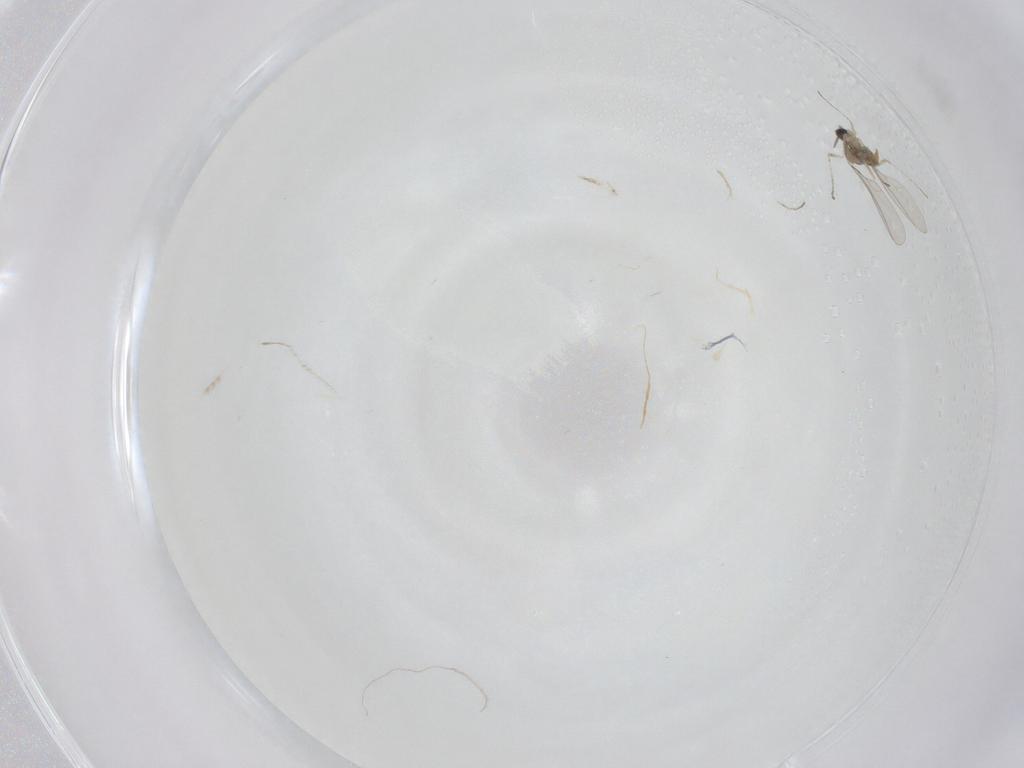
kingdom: Animalia
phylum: Arthropoda
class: Insecta
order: Diptera
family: Cecidomyiidae
